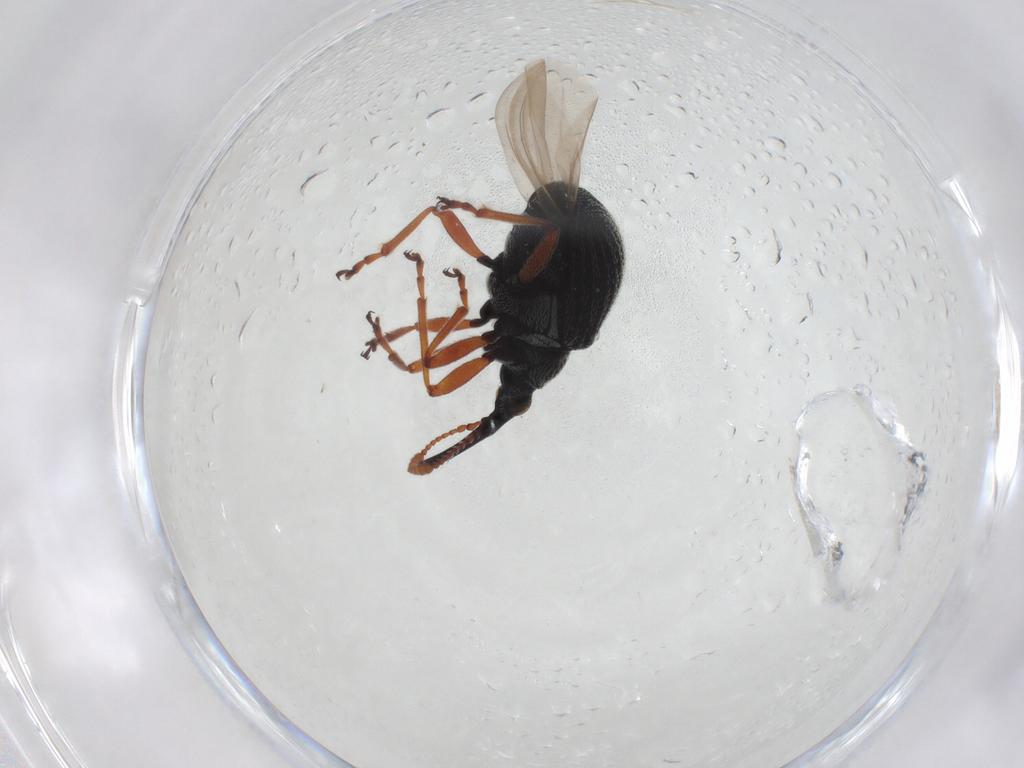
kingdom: Animalia
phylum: Arthropoda
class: Insecta
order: Coleoptera
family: Brentidae
